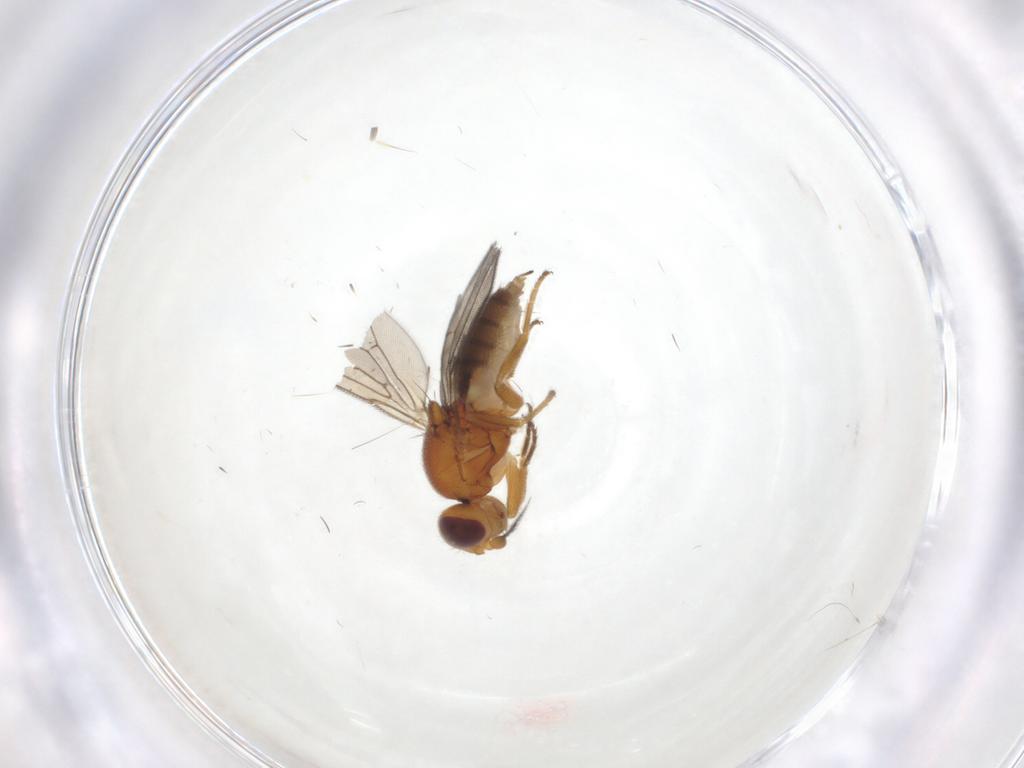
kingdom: Animalia
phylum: Arthropoda
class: Insecta
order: Diptera
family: Chloropidae
